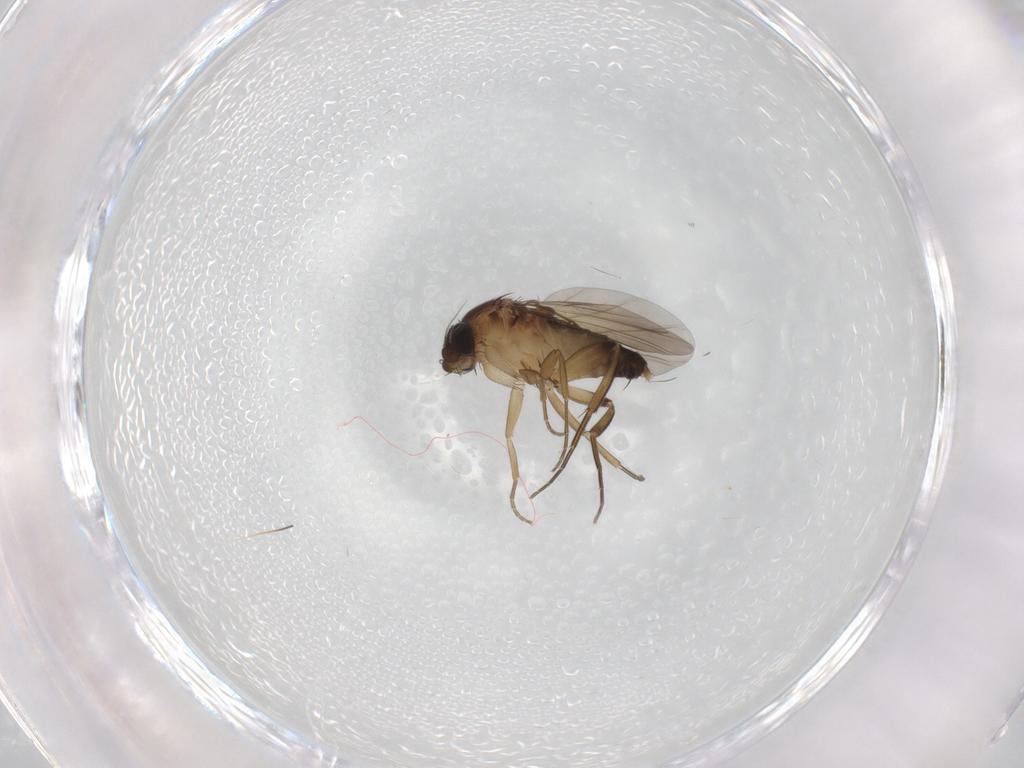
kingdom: Animalia
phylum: Arthropoda
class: Insecta
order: Diptera
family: Phoridae
